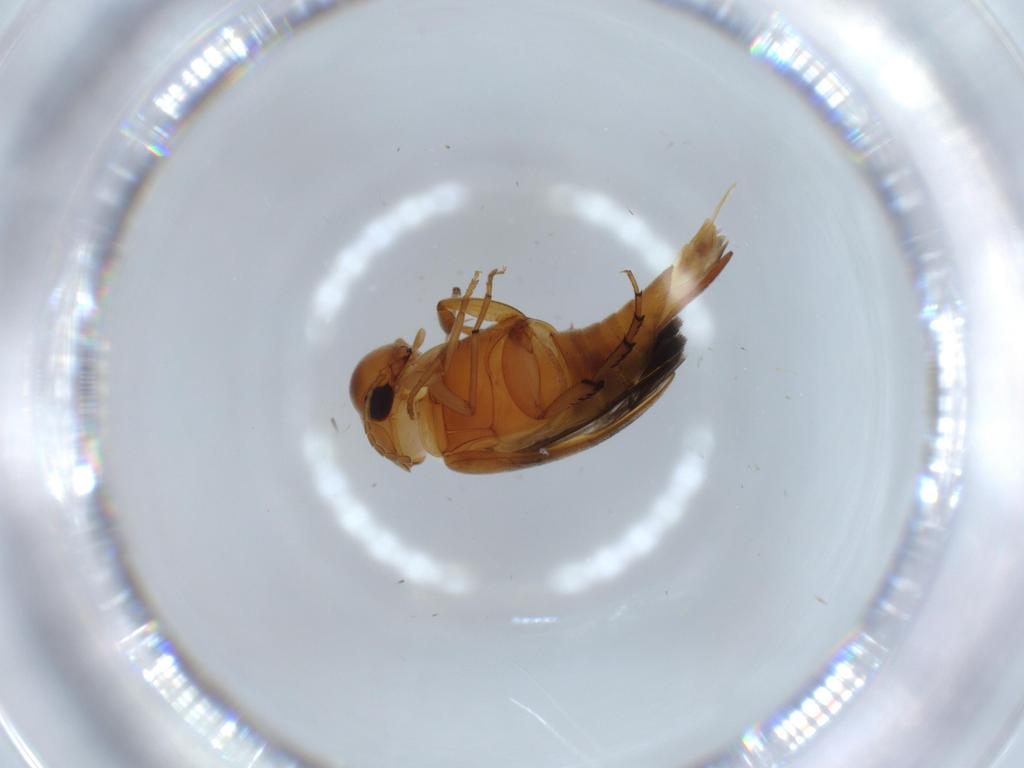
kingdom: Animalia
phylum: Arthropoda
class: Insecta
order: Coleoptera
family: Mordellidae
